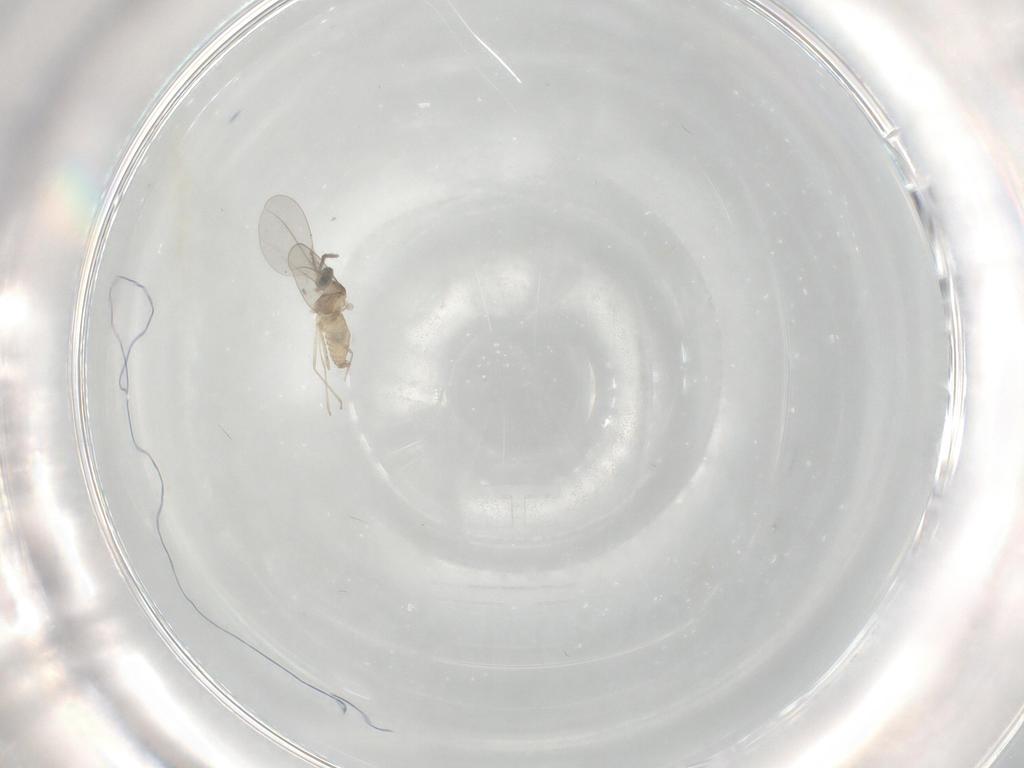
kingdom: Animalia
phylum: Arthropoda
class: Insecta
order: Diptera
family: Cecidomyiidae
